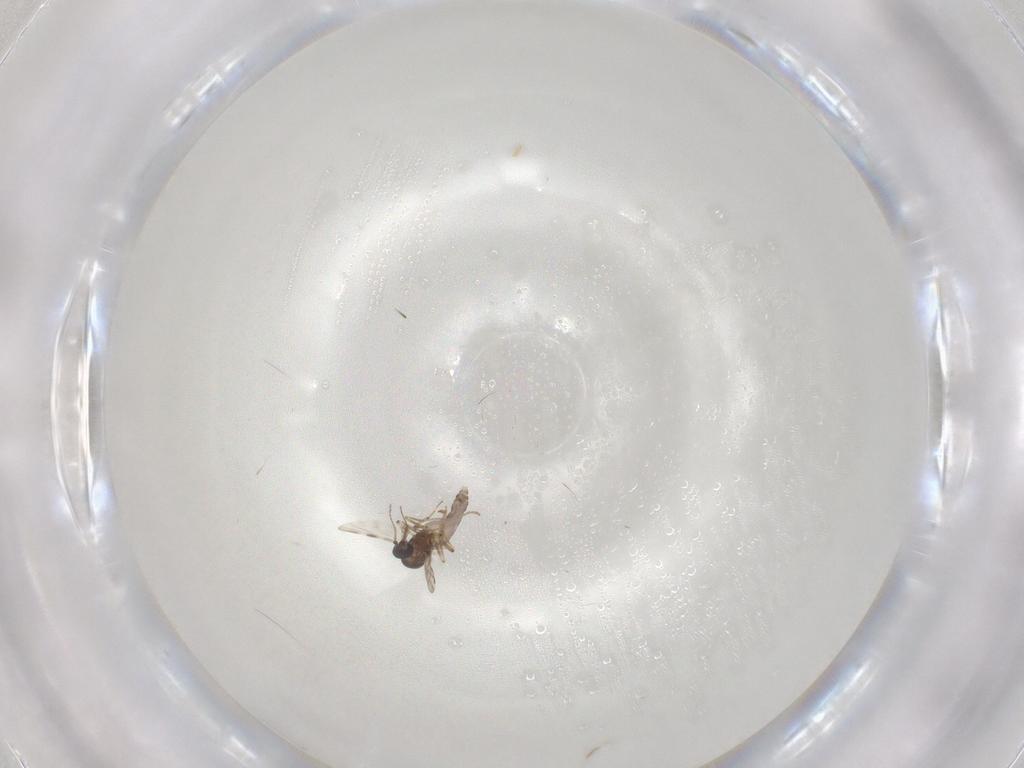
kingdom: Animalia
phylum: Arthropoda
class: Insecta
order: Diptera
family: Cecidomyiidae
